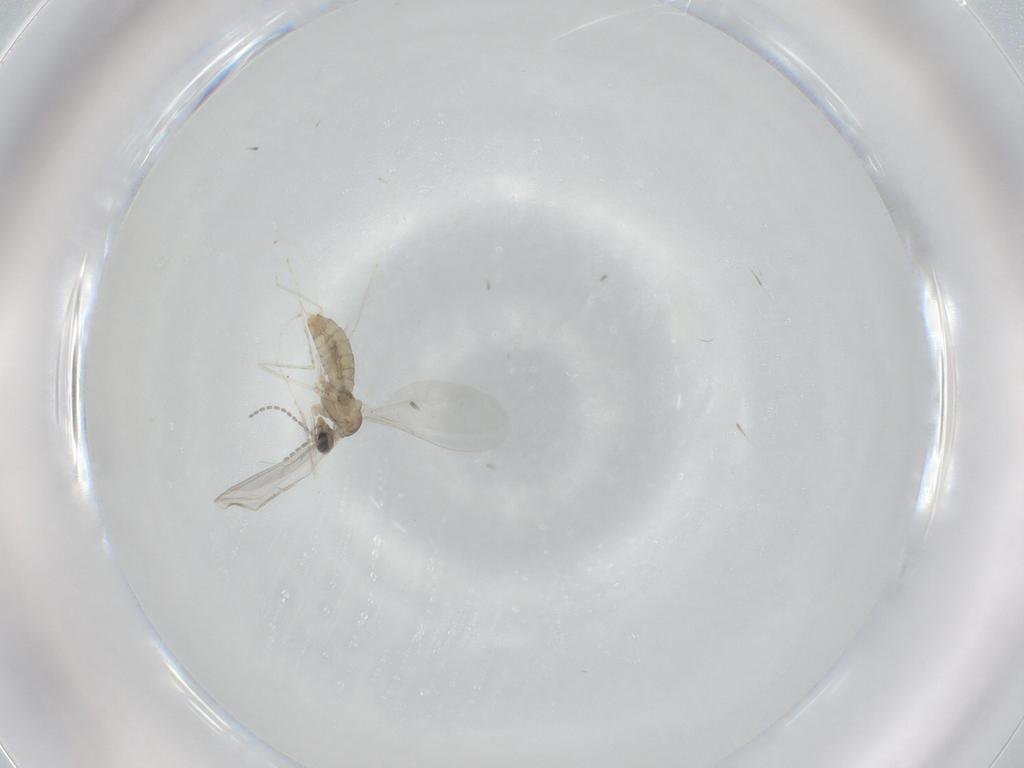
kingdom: Animalia
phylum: Arthropoda
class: Insecta
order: Diptera
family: Cecidomyiidae
